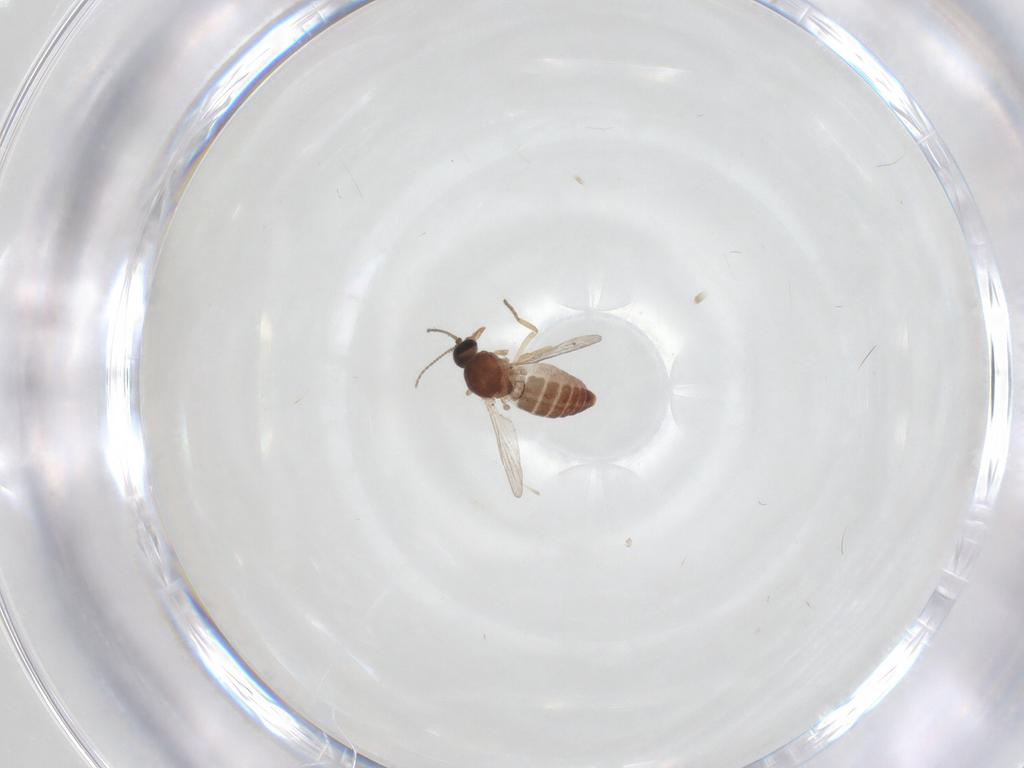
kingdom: Animalia
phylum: Arthropoda
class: Insecta
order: Diptera
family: Ceratopogonidae
